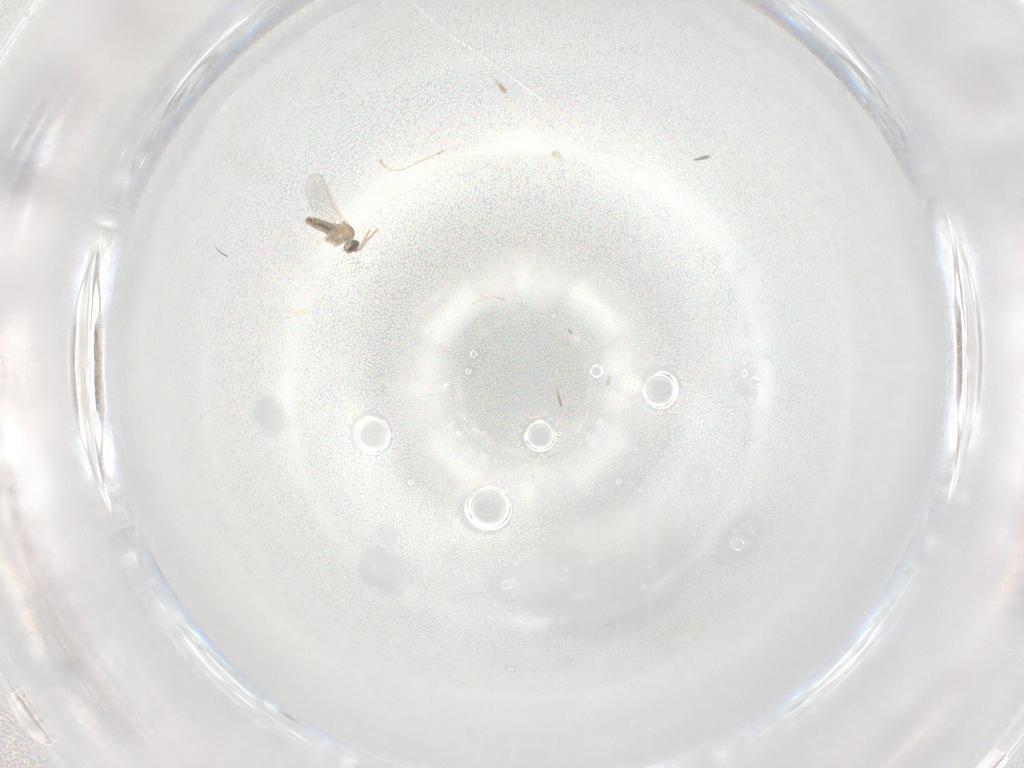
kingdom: Animalia
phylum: Arthropoda
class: Insecta
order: Diptera
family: Cecidomyiidae
